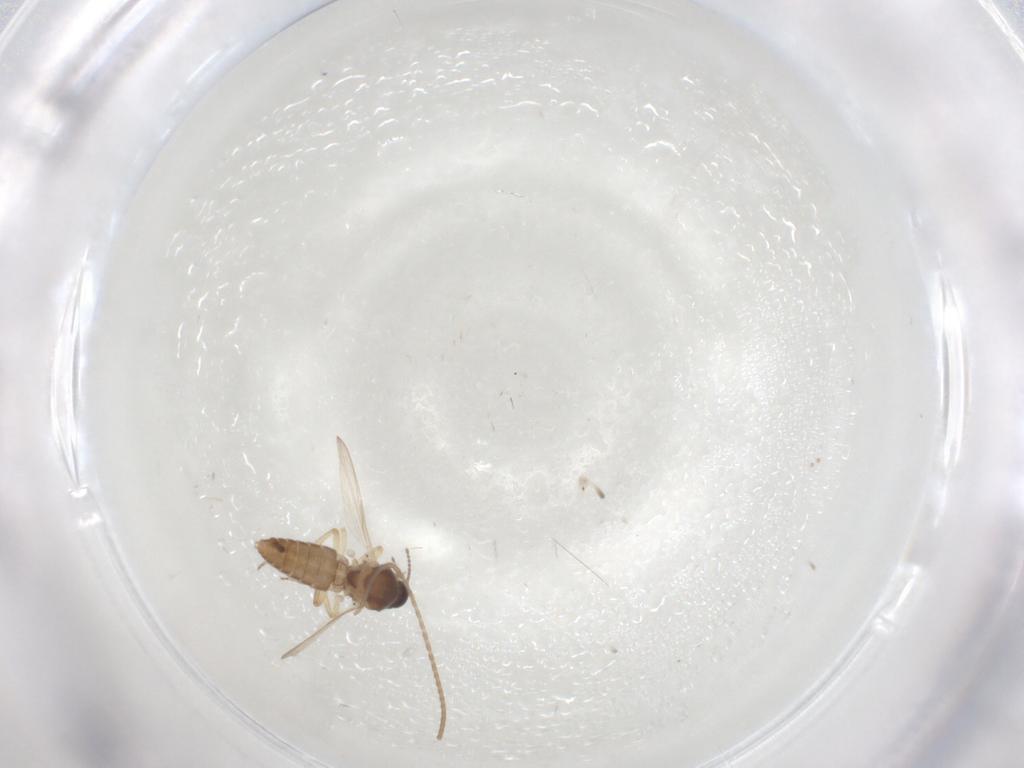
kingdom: Animalia
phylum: Arthropoda
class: Insecta
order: Diptera
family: Ceratopogonidae
